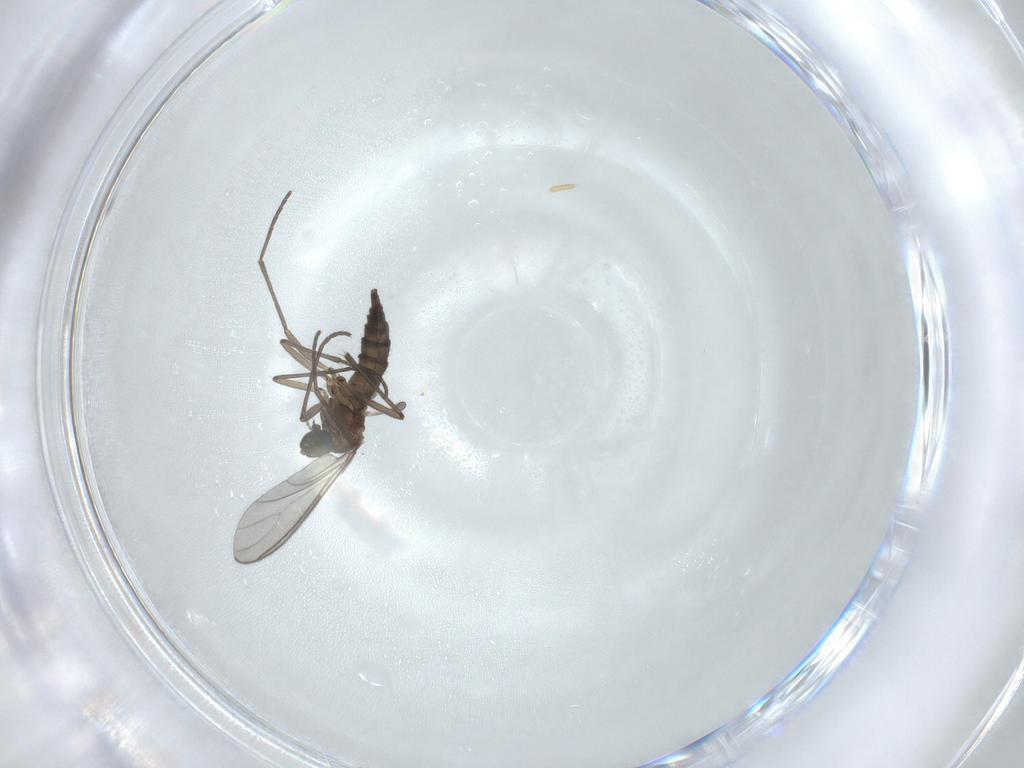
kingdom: Animalia
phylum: Arthropoda
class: Insecta
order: Diptera
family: Sciaridae
